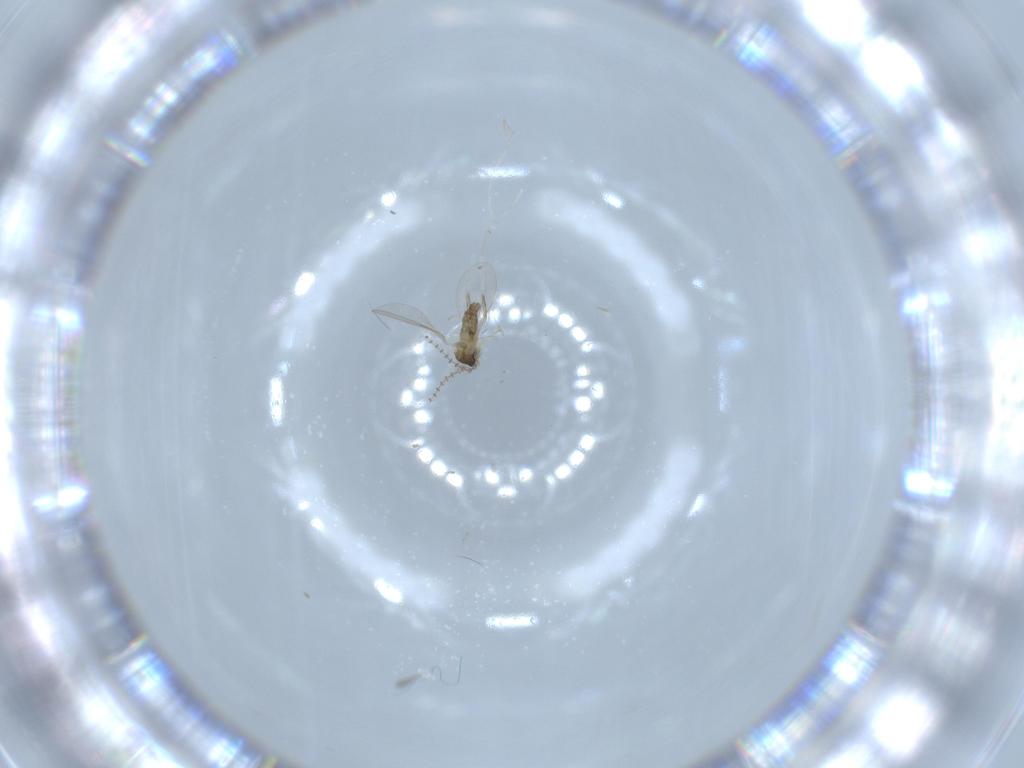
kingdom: Animalia
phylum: Arthropoda
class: Insecta
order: Diptera
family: Cecidomyiidae
